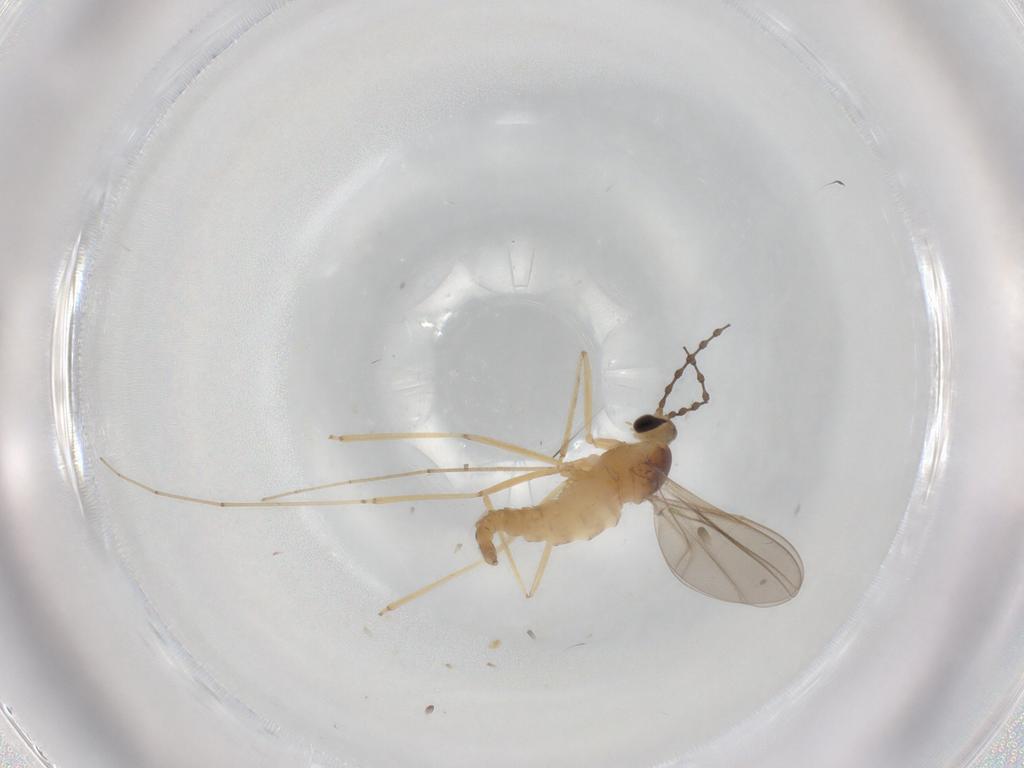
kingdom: Animalia
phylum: Arthropoda
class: Insecta
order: Diptera
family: Cecidomyiidae
